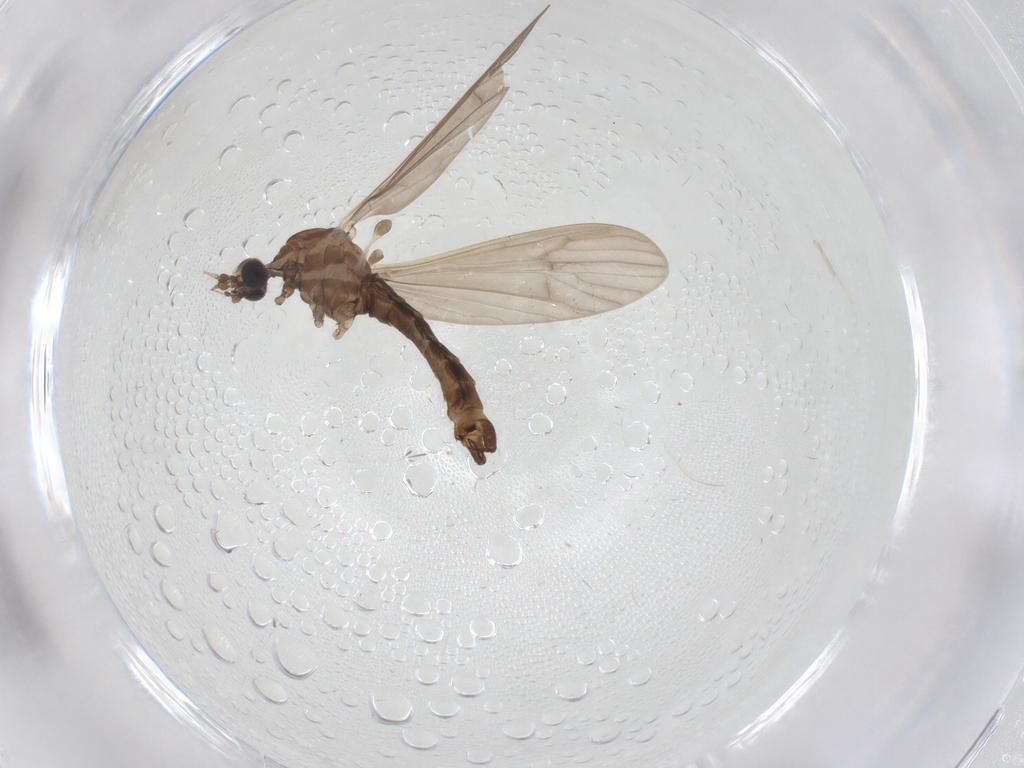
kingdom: Animalia
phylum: Arthropoda
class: Insecta
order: Diptera
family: Limoniidae
